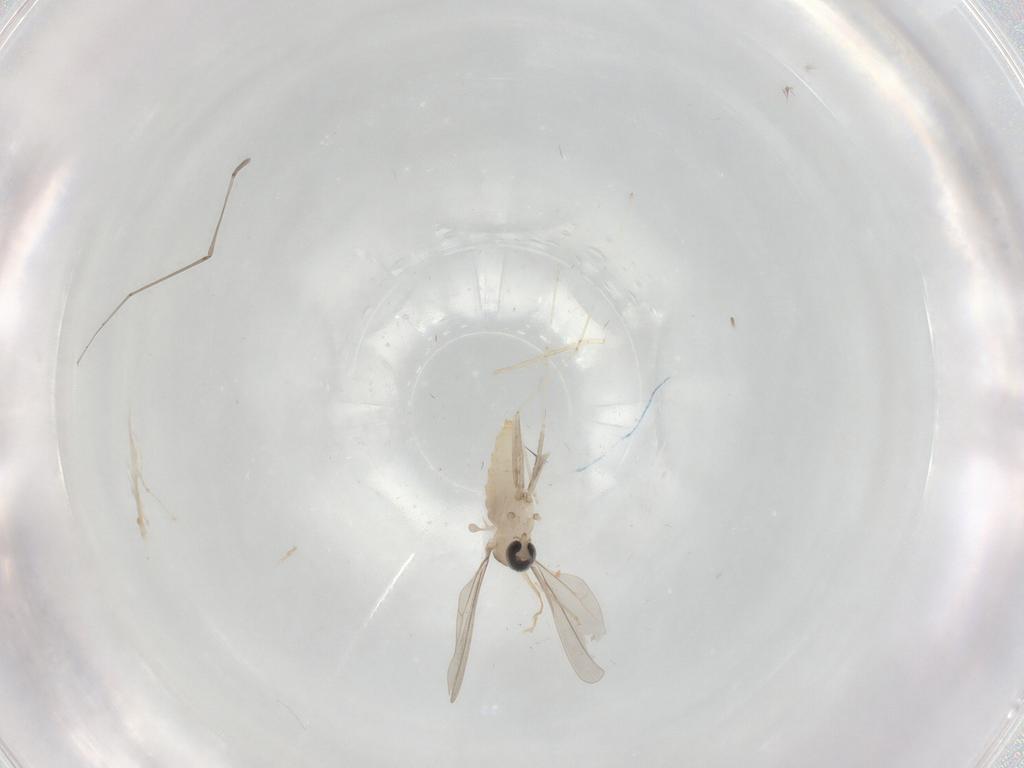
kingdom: Animalia
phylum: Arthropoda
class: Insecta
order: Diptera
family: Cecidomyiidae
